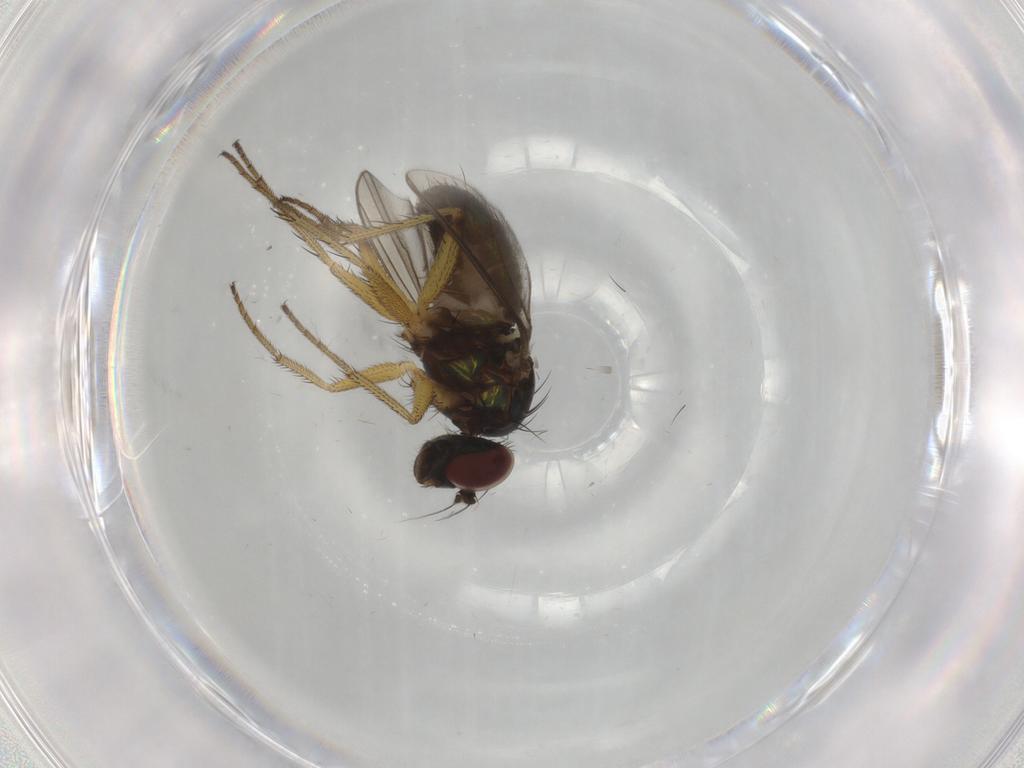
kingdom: Animalia
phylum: Arthropoda
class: Insecta
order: Diptera
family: Dolichopodidae
